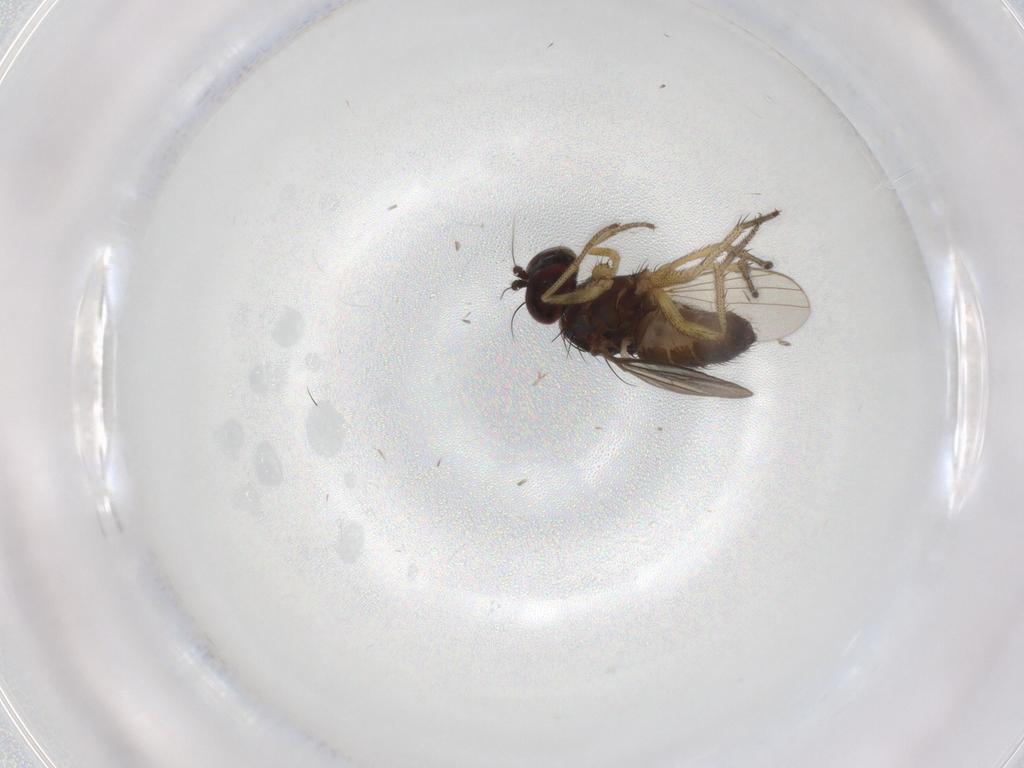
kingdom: Animalia
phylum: Arthropoda
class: Insecta
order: Diptera
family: Dolichopodidae
